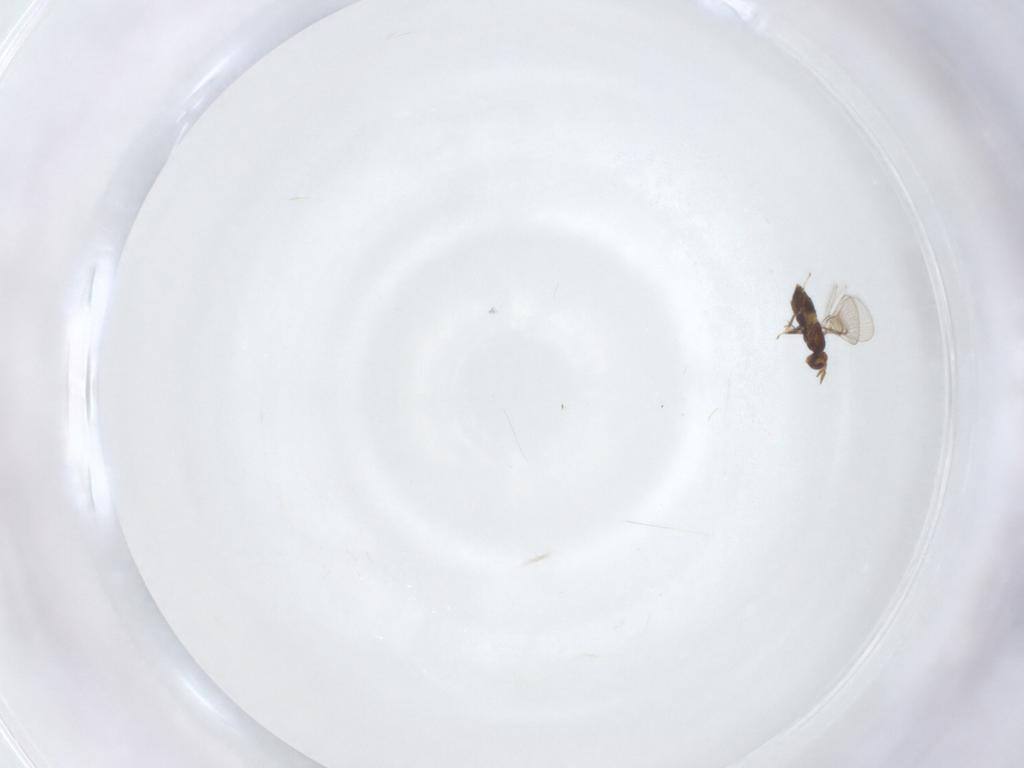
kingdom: Animalia
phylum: Arthropoda
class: Insecta
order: Hymenoptera
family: Trichogrammatidae
